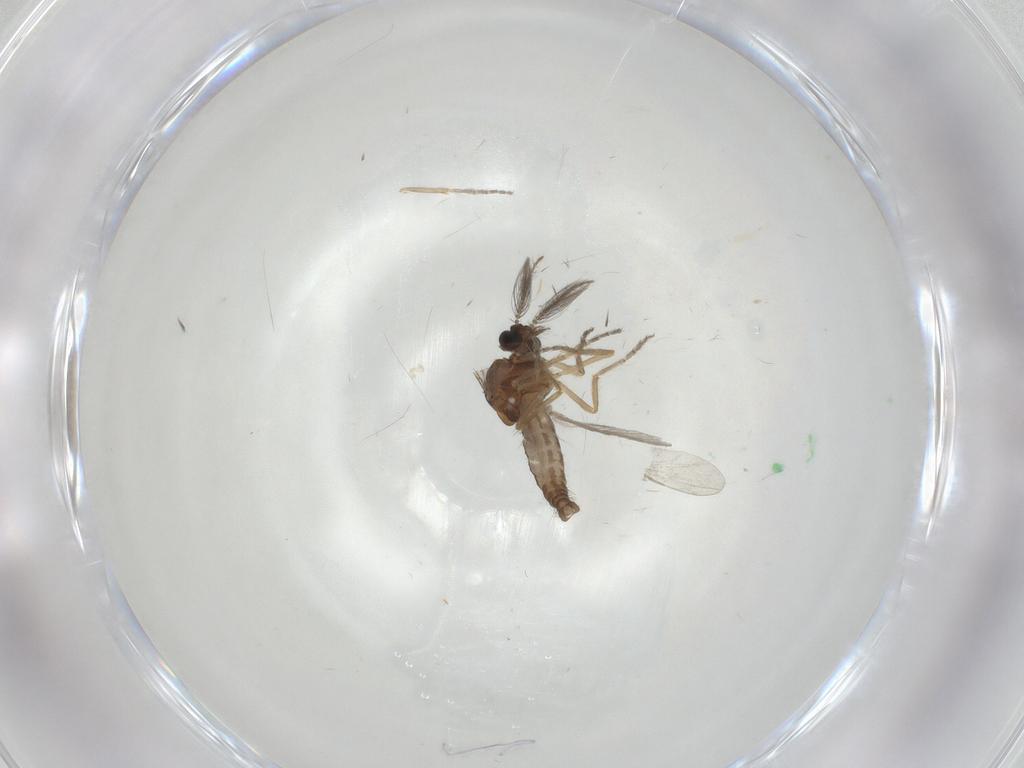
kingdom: Animalia
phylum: Arthropoda
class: Insecta
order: Diptera
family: Ceratopogonidae
